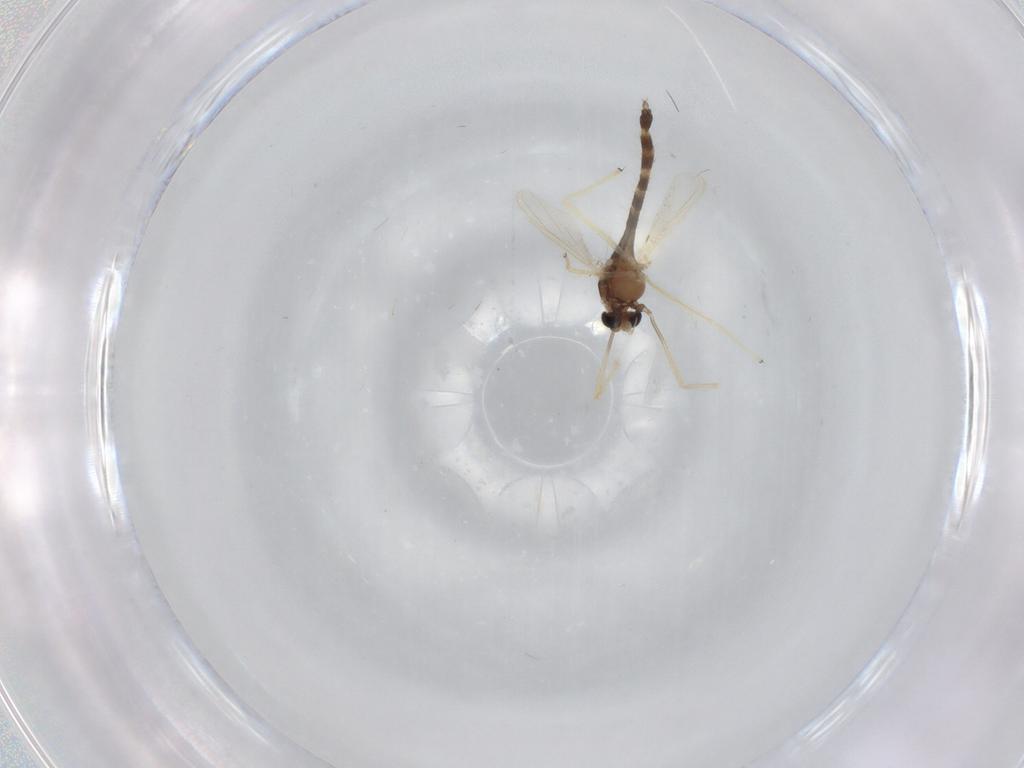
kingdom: Animalia
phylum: Arthropoda
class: Insecta
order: Diptera
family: Chironomidae
